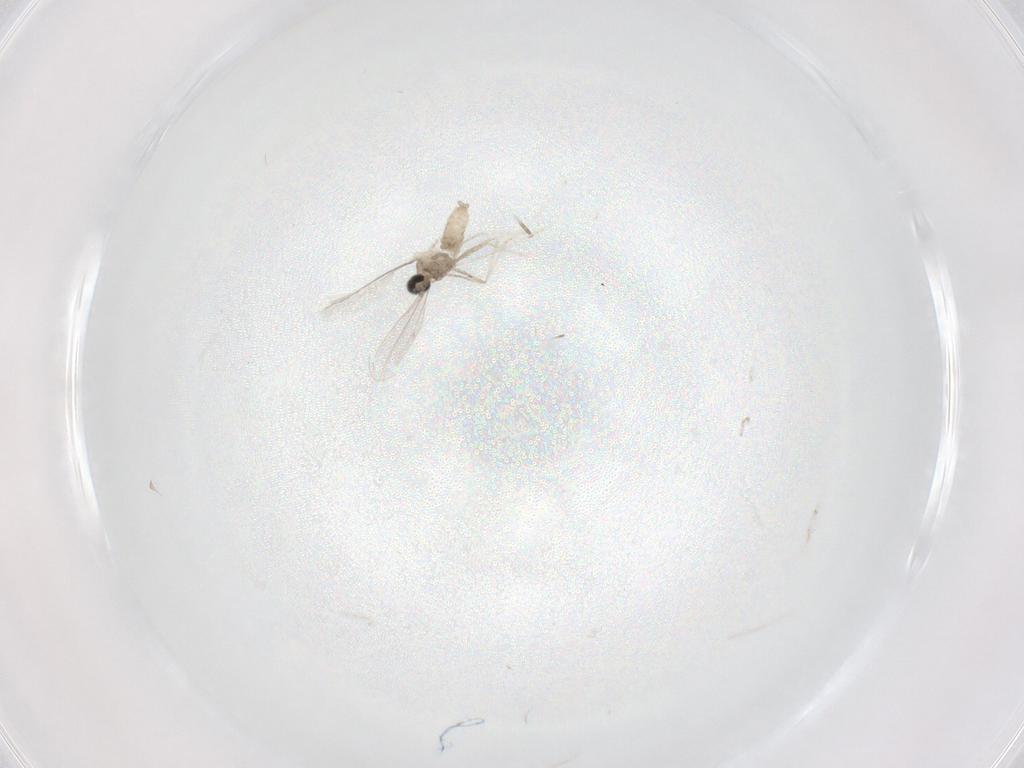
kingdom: Animalia
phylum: Arthropoda
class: Insecta
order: Diptera
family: Cecidomyiidae
